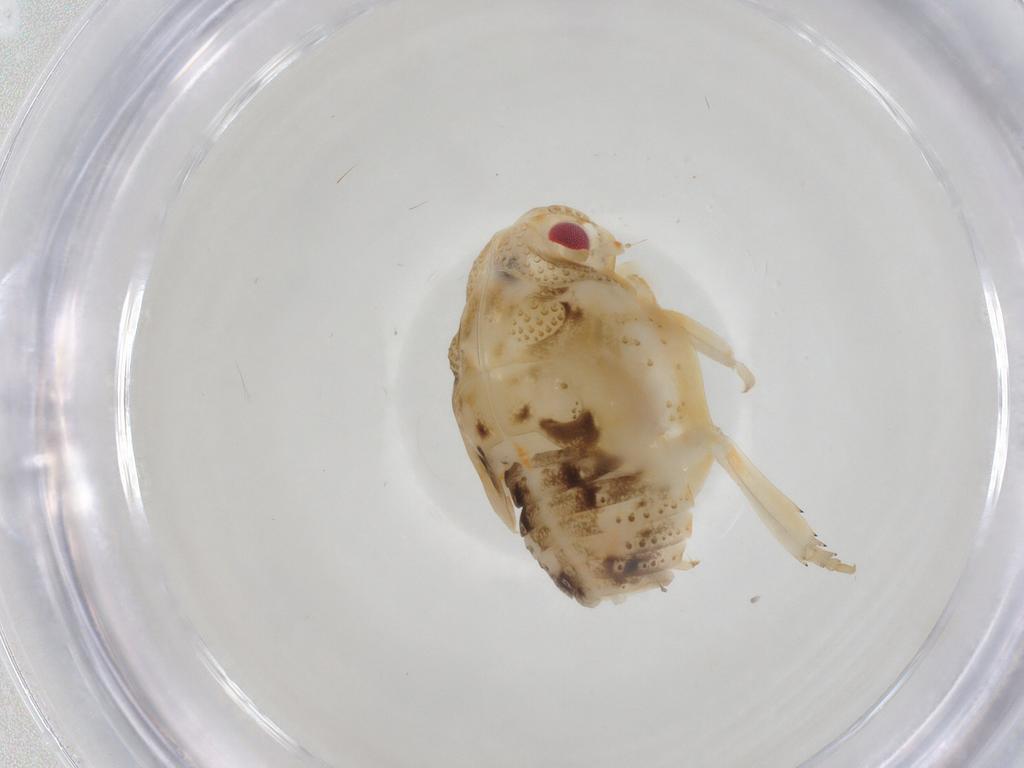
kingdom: Animalia
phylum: Arthropoda
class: Insecta
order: Hemiptera
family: Flatidae
